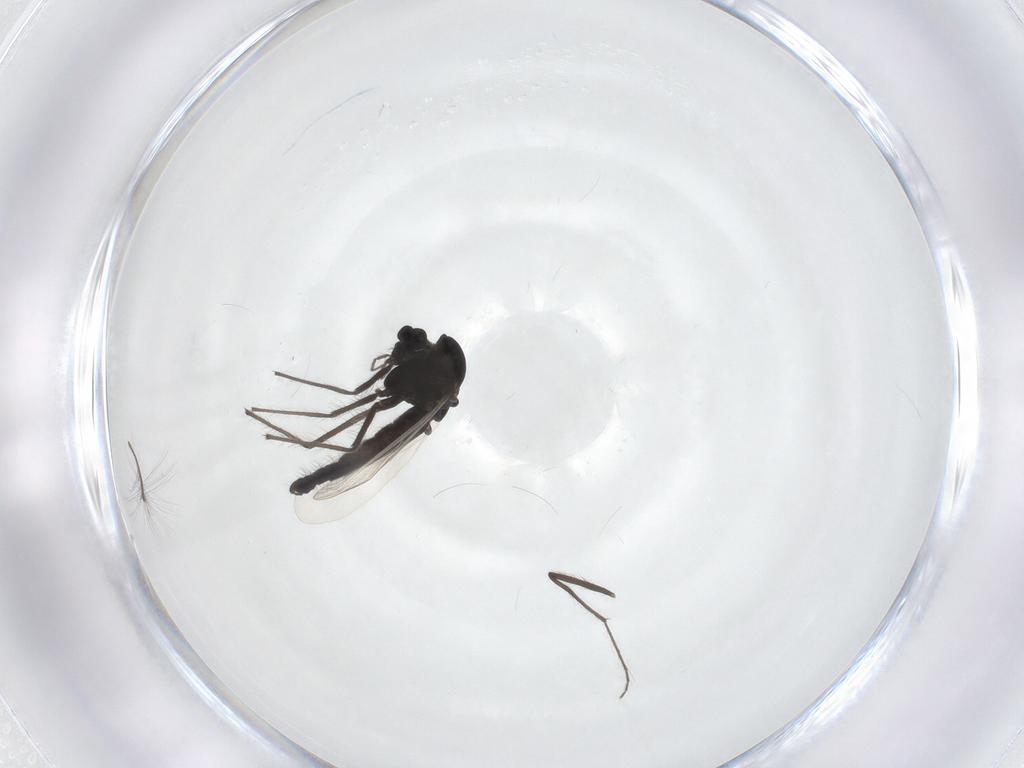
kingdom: Animalia
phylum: Arthropoda
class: Insecta
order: Diptera
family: Chironomidae
